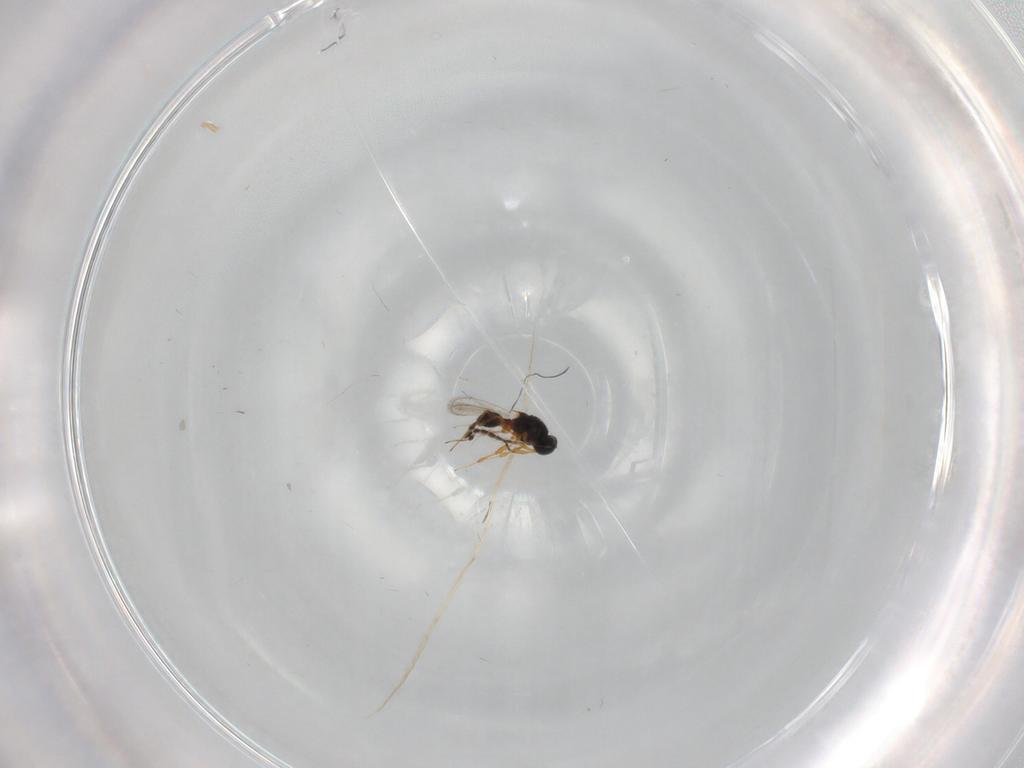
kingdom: Animalia
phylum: Arthropoda
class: Insecta
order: Hymenoptera
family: Platygastridae
